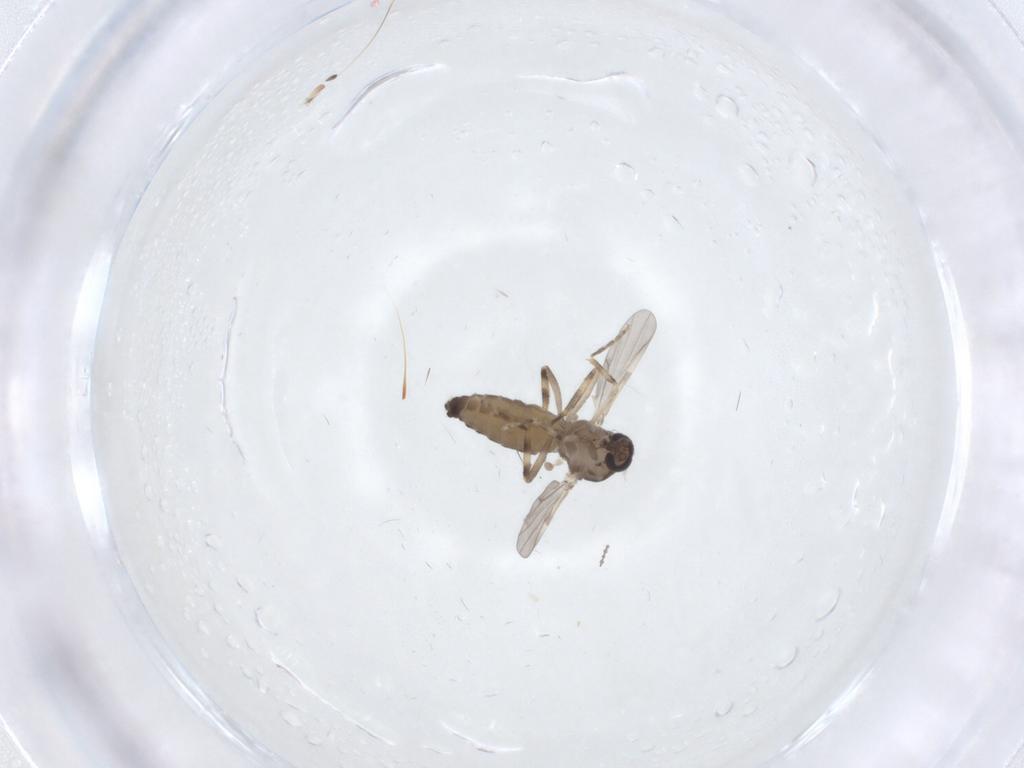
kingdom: Animalia
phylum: Arthropoda
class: Insecta
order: Diptera
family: Ceratopogonidae
